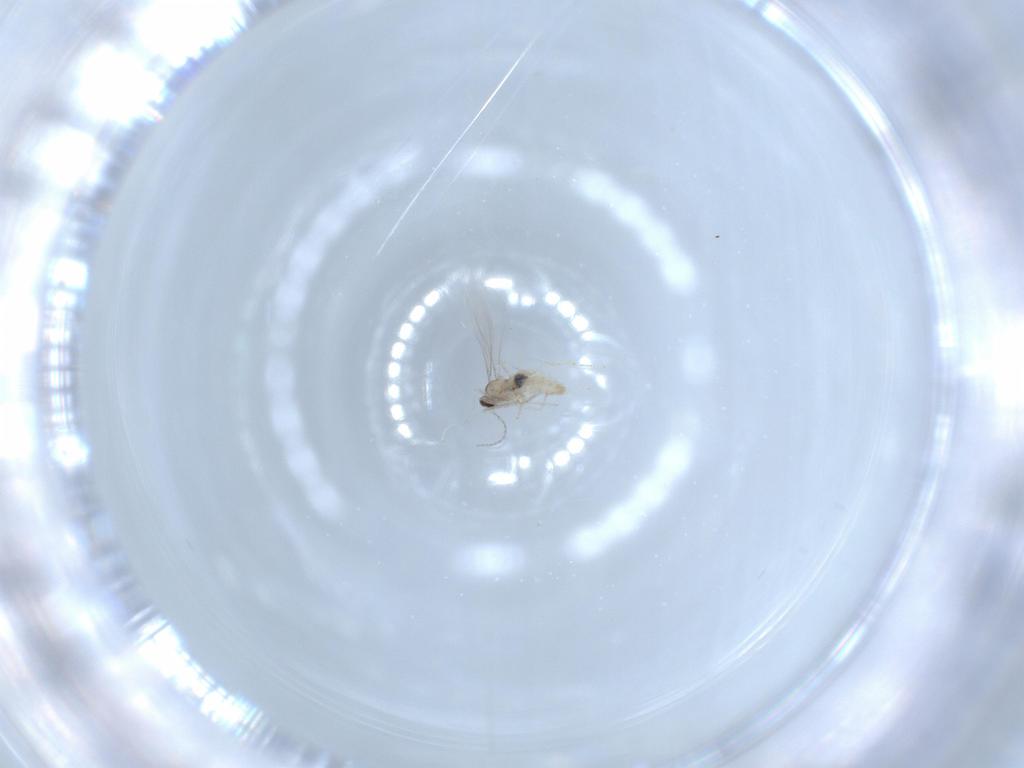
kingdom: Animalia
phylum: Arthropoda
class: Insecta
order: Diptera
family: Cecidomyiidae
